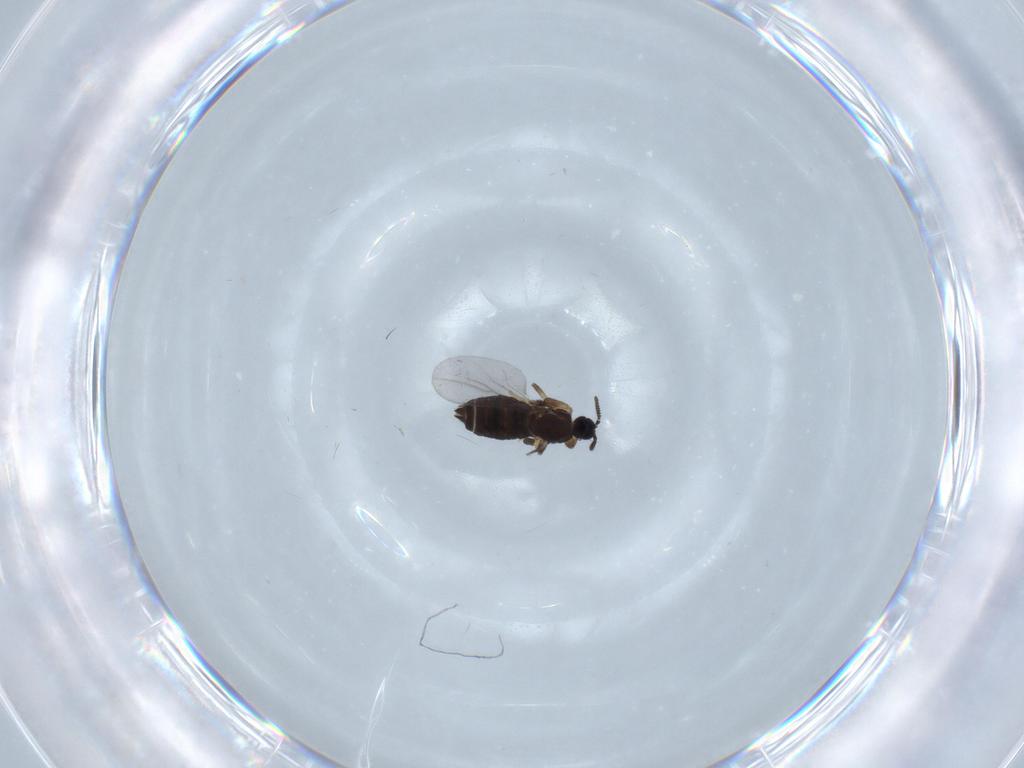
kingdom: Animalia
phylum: Arthropoda
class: Insecta
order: Diptera
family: Scatopsidae
